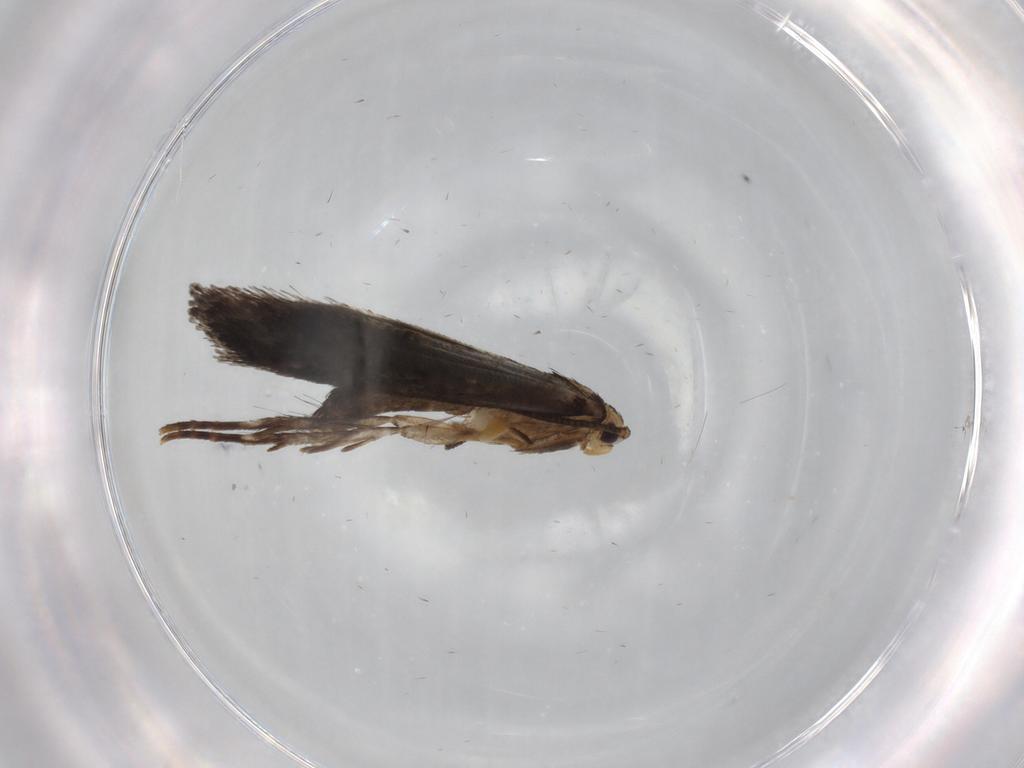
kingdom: Animalia
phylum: Arthropoda
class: Insecta
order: Lepidoptera
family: Tineidae
